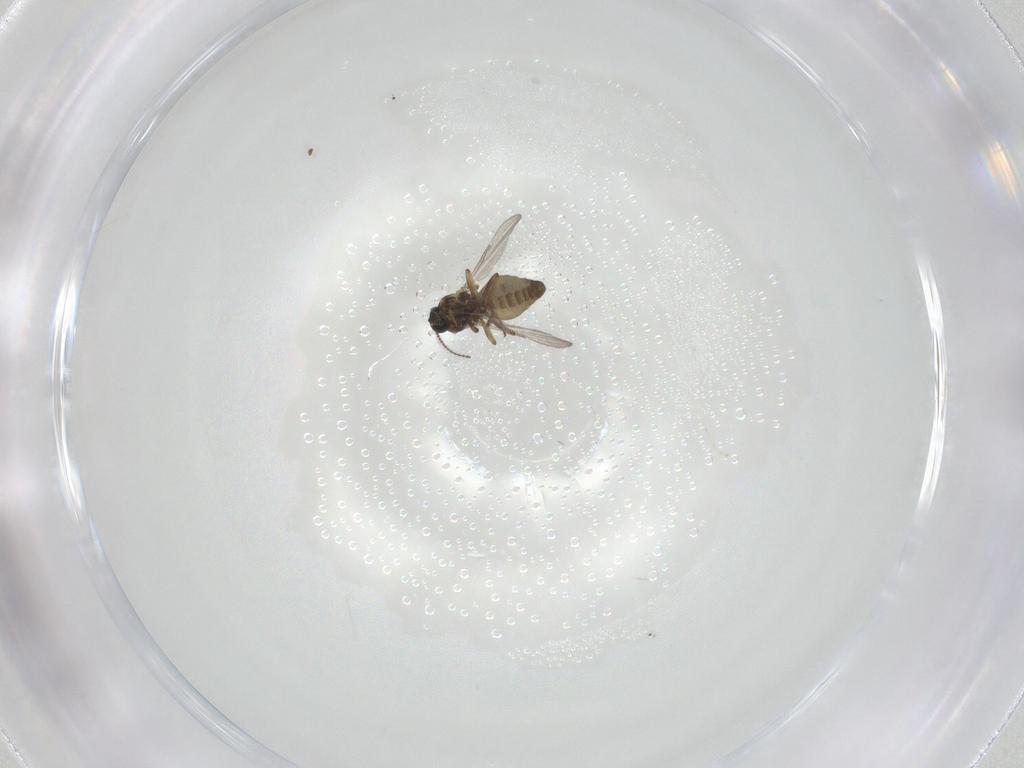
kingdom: Animalia
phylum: Arthropoda
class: Insecta
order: Diptera
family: Ceratopogonidae
